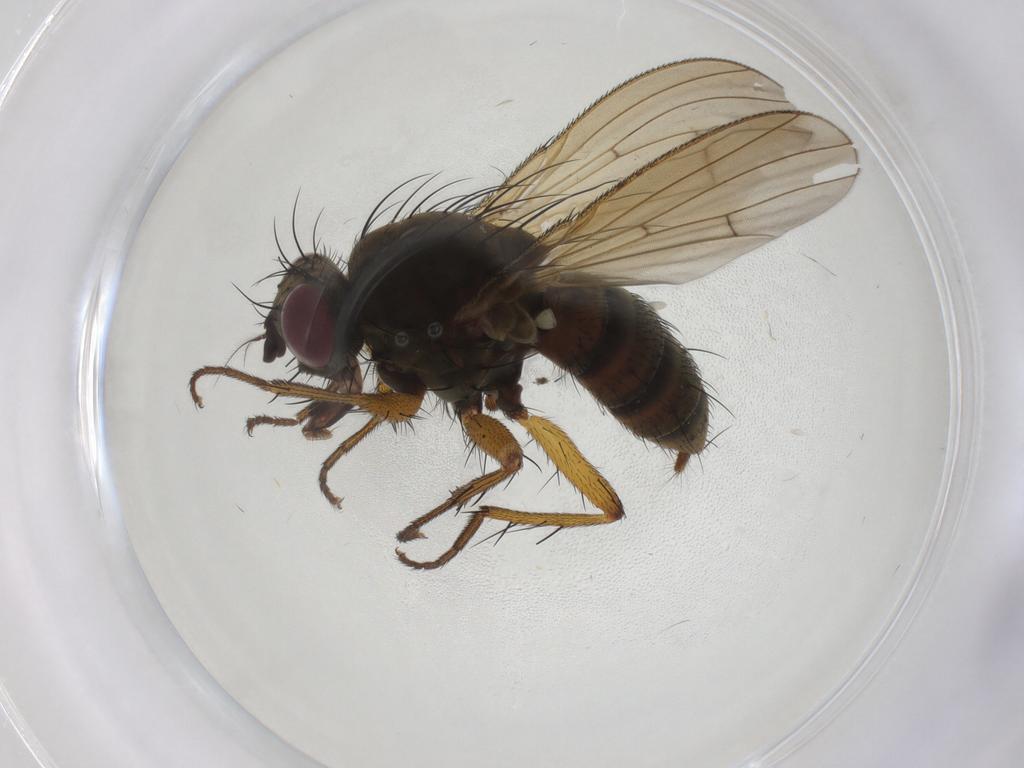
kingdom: Animalia
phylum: Arthropoda
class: Insecta
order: Diptera
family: Muscidae
